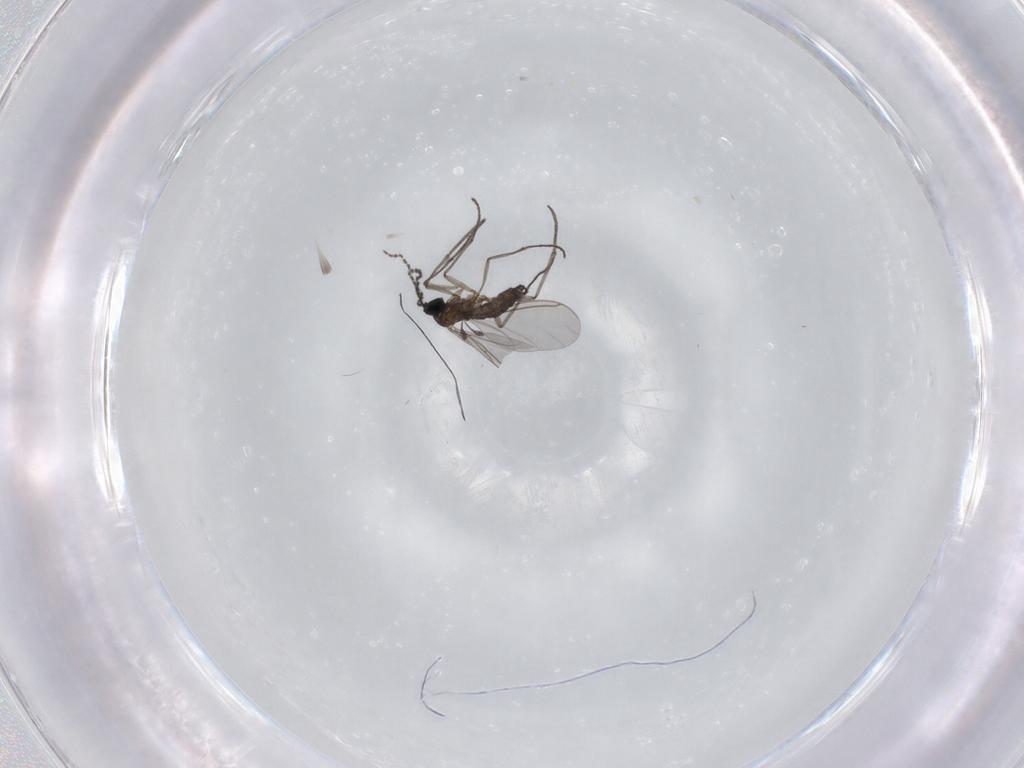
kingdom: Animalia
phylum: Arthropoda
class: Insecta
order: Diptera
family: Sciaridae
